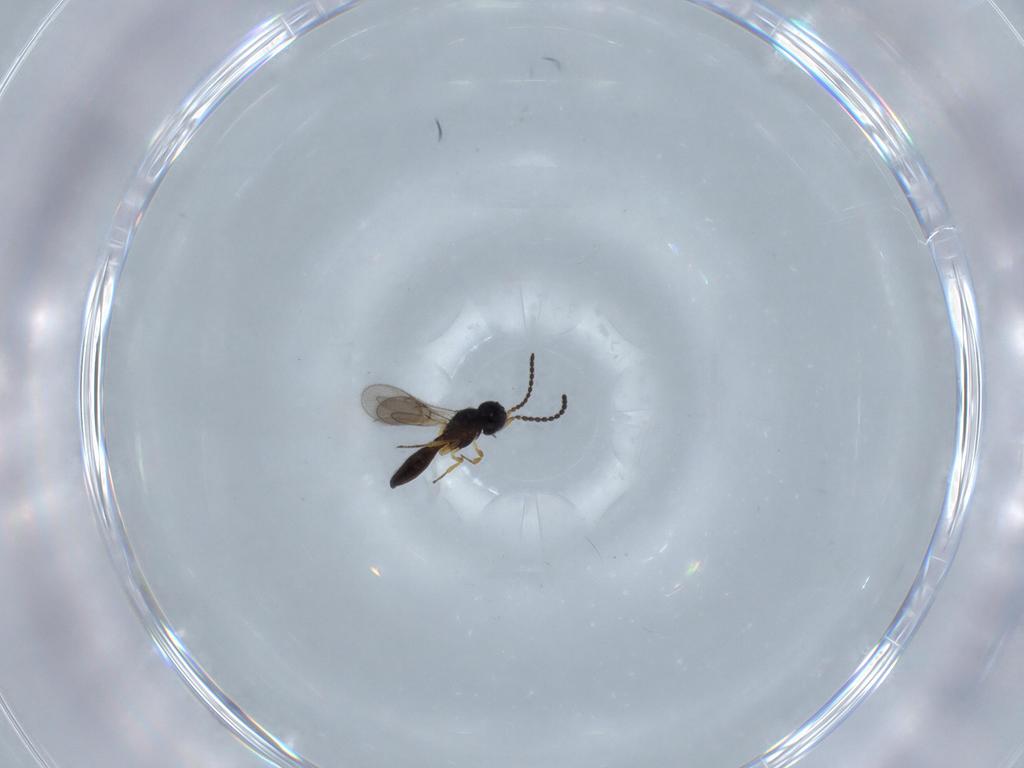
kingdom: Animalia
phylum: Arthropoda
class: Insecta
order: Hymenoptera
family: Scelionidae
